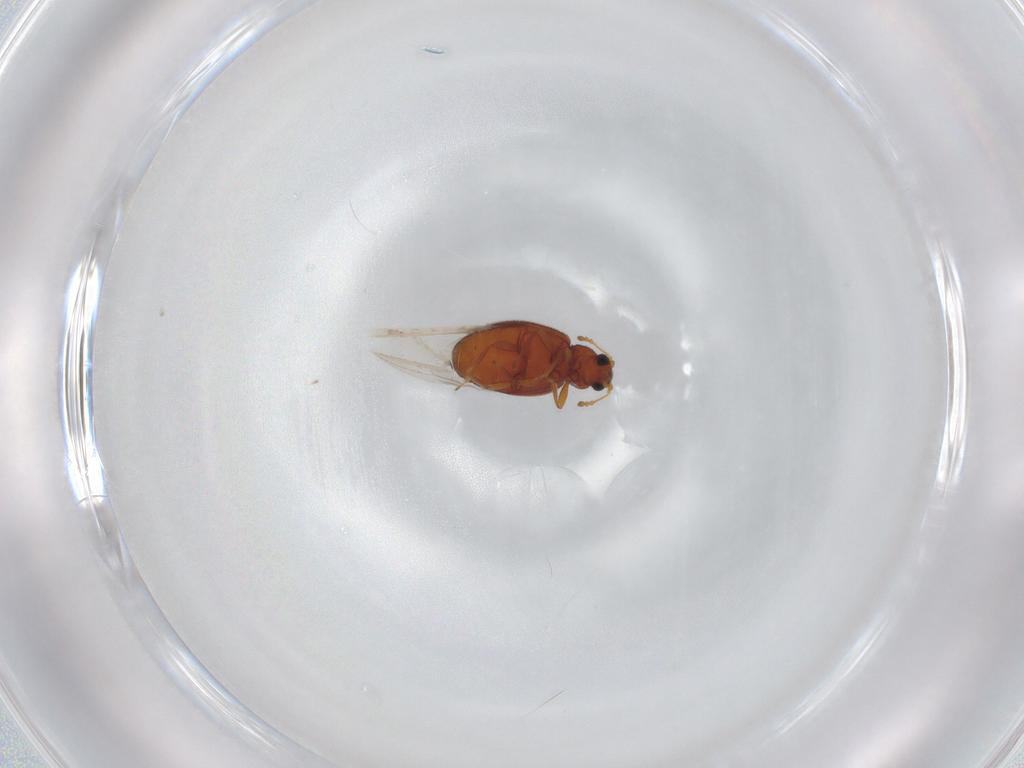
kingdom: Animalia
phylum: Arthropoda
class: Insecta
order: Coleoptera
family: Latridiidae
